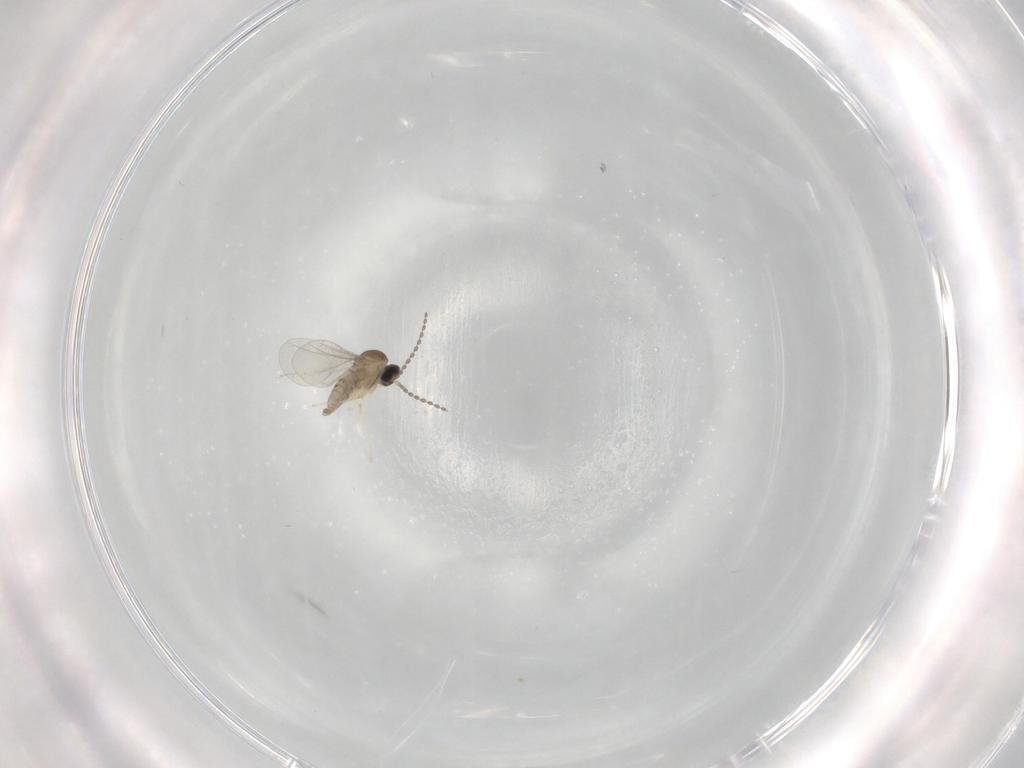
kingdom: Animalia
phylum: Arthropoda
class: Insecta
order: Diptera
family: Cecidomyiidae
